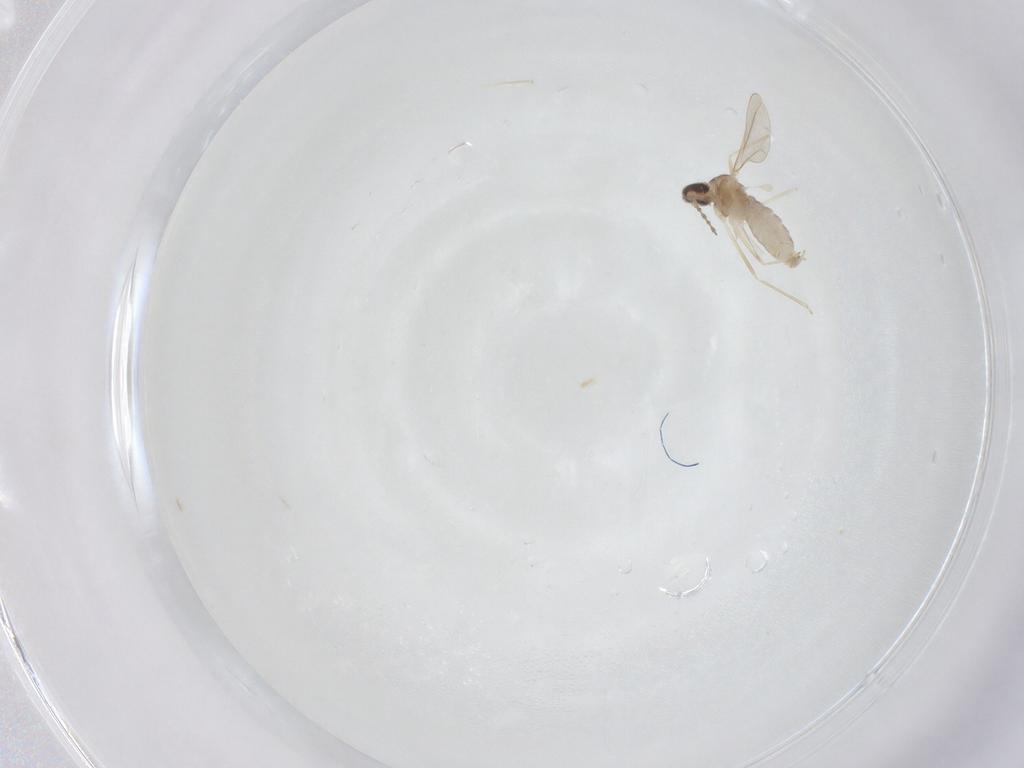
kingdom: Animalia
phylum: Arthropoda
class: Insecta
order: Diptera
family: Cecidomyiidae
